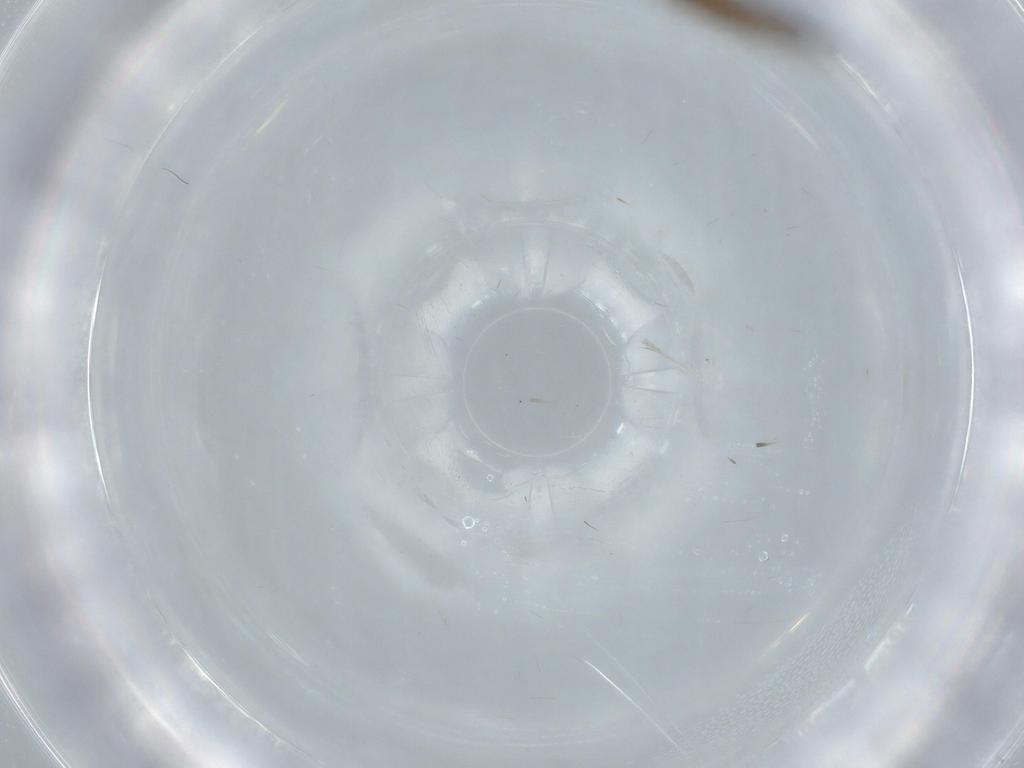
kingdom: Animalia
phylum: Arthropoda
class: Insecta
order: Trichoptera
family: Hydroptilidae
